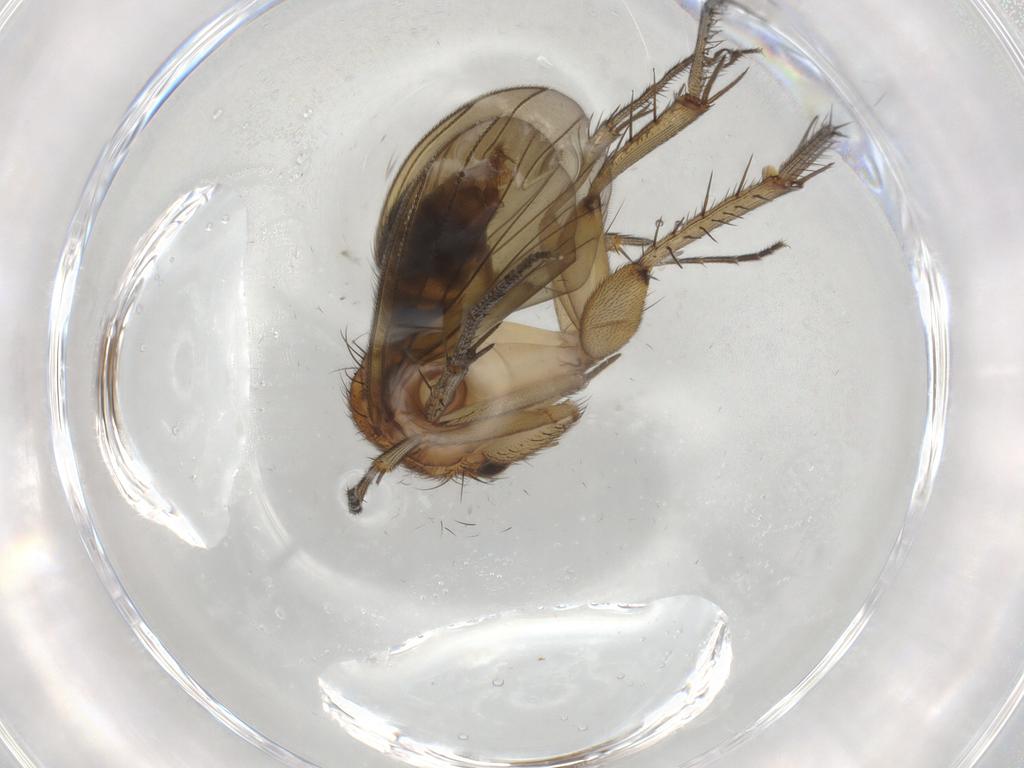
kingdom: Animalia
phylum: Arthropoda
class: Insecta
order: Diptera
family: Mycetophilidae
